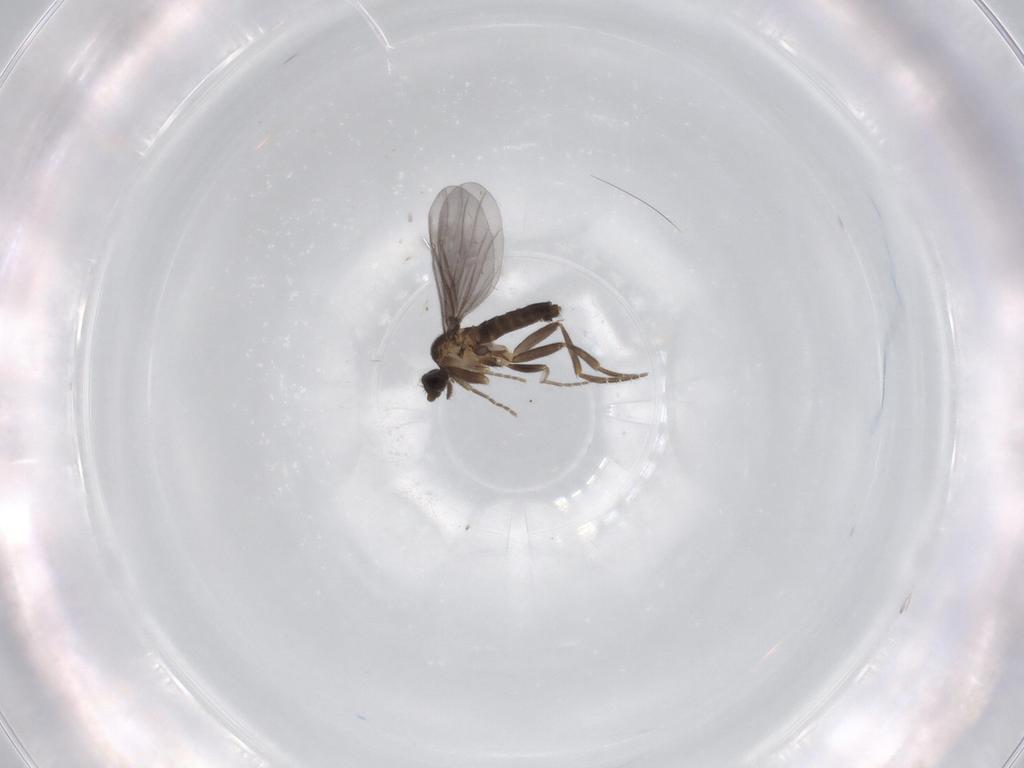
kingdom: Animalia
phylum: Arthropoda
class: Insecta
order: Diptera
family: Phoridae
